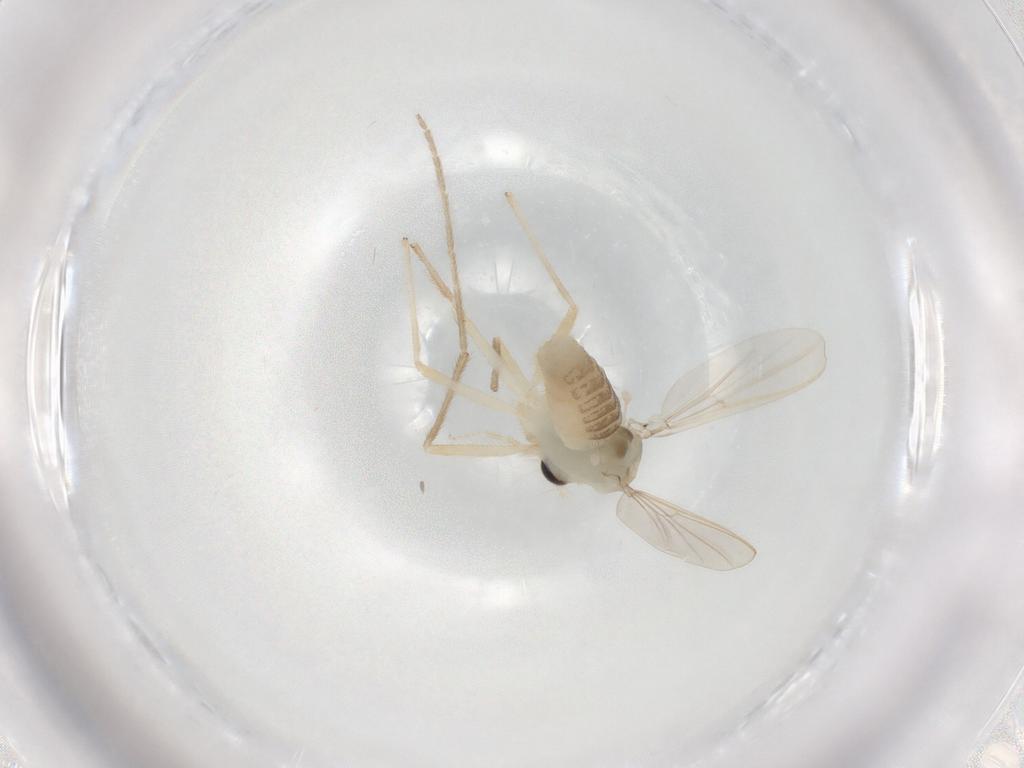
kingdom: Animalia
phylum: Arthropoda
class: Insecta
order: Diptera
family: Chironomidae
